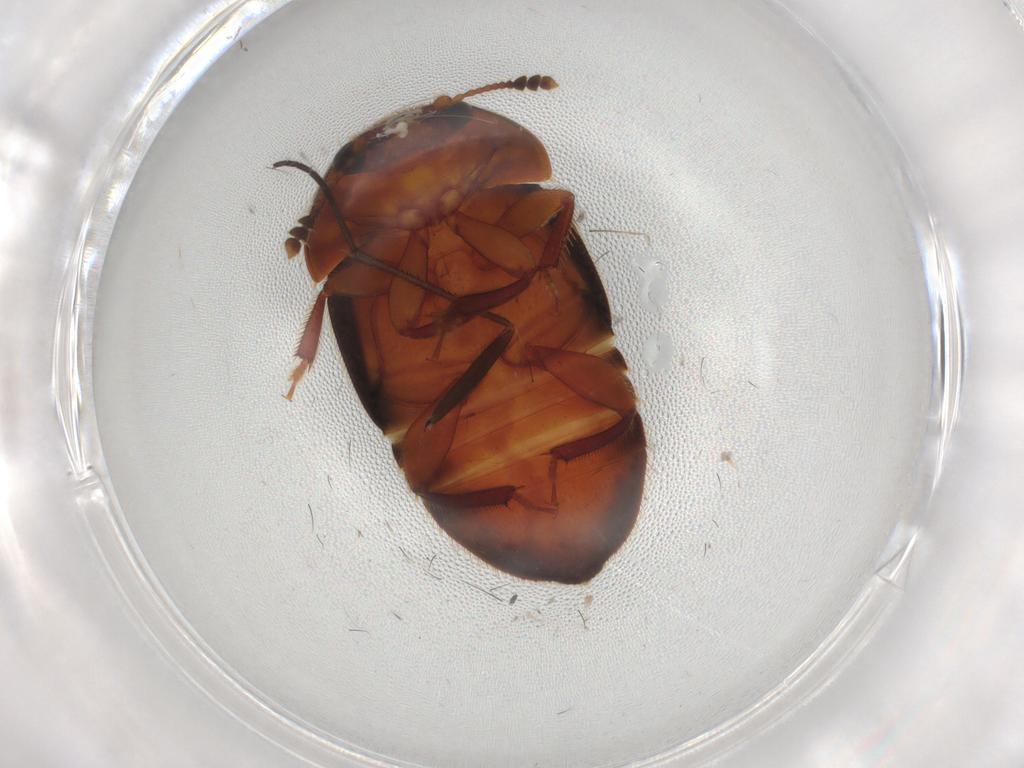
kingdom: Animalia
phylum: Arthropoda
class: Insecta
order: Coleoptera
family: Nitidulidae
